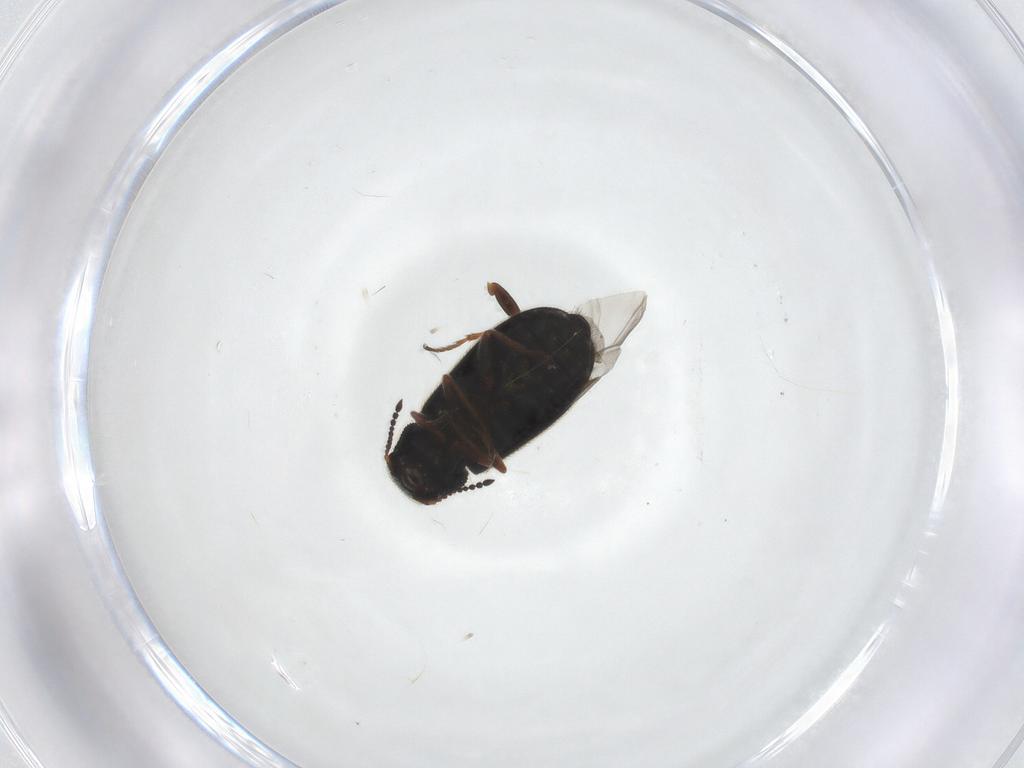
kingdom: Animalia
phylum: Arthropoda
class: Insecta
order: Coleoptera
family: Melyridae
